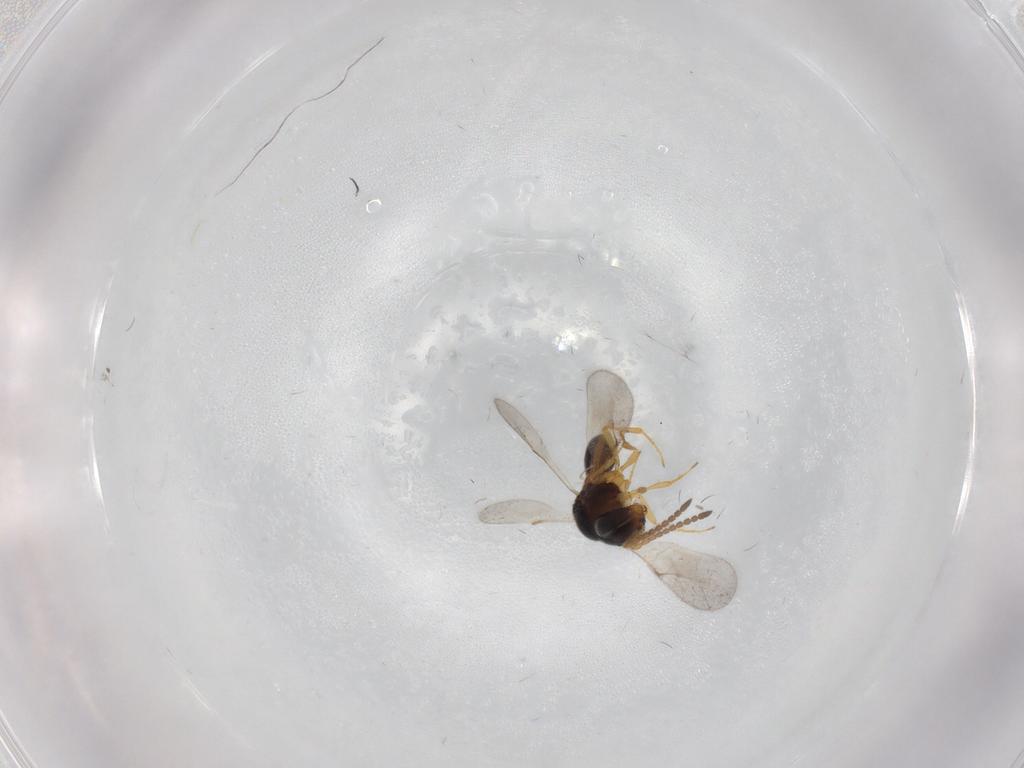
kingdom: Animalia
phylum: Arthropoda
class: Insecta
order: Hymenoptera
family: Scelionidae
